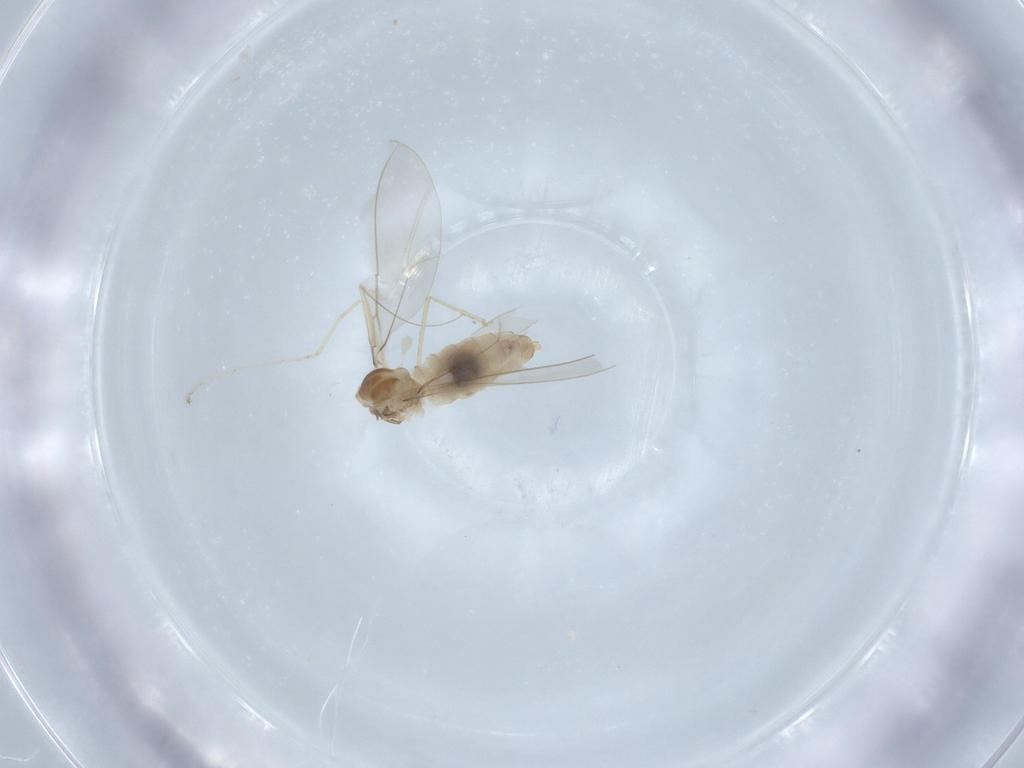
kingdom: Animalia
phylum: Arthropoda
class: Insecta
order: Diptera
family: Cecidomyiidae
